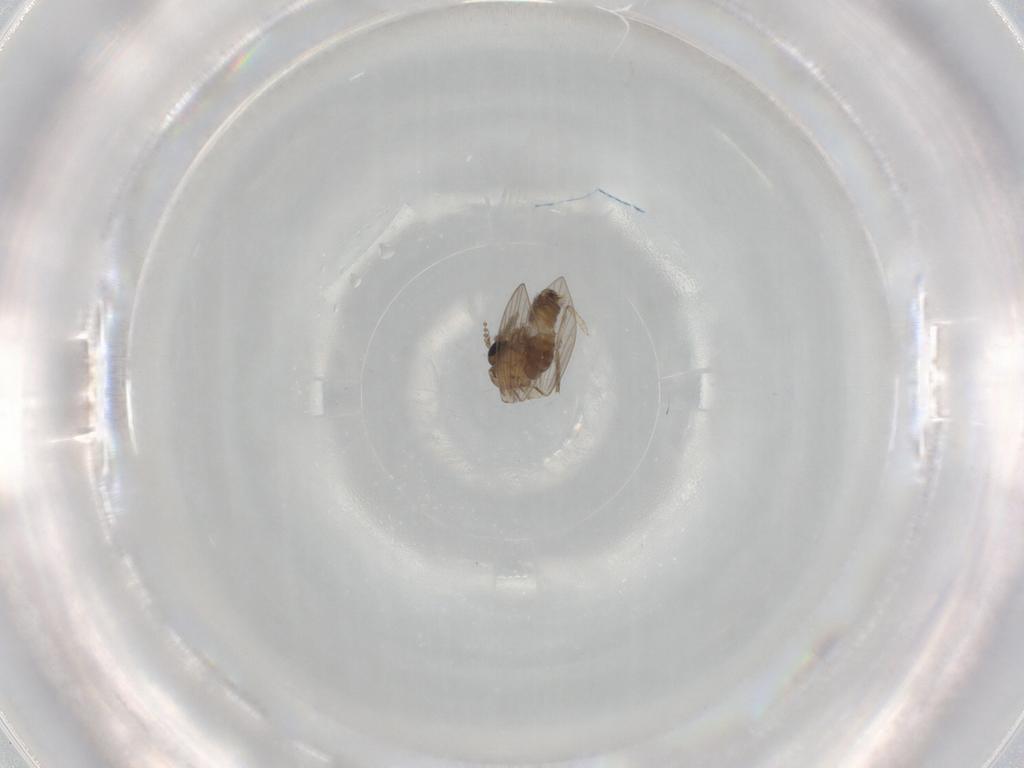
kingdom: Animalia
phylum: Arthropoda
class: Insecta
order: Diptera
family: Psychodidae
